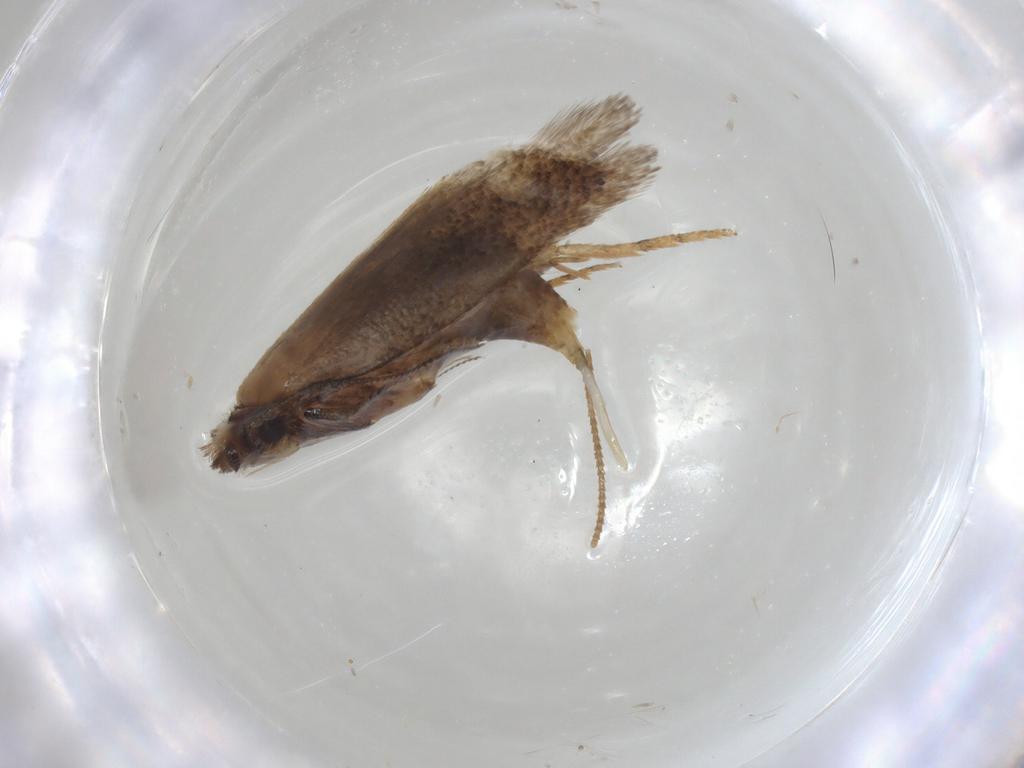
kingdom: Animalia
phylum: Arthropoda
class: Insecta
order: Lepidoptera
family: Nepticulidae
